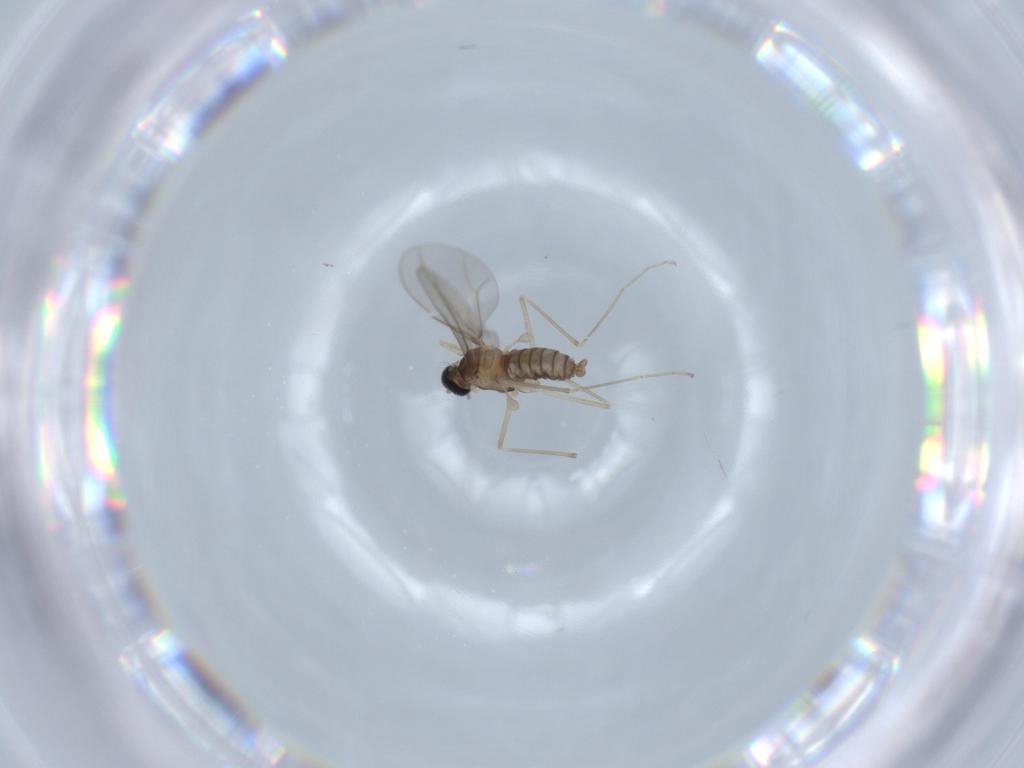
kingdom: Animalia
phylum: Arthropoda
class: Insecta
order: Diptera
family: Cecidomyiidae
